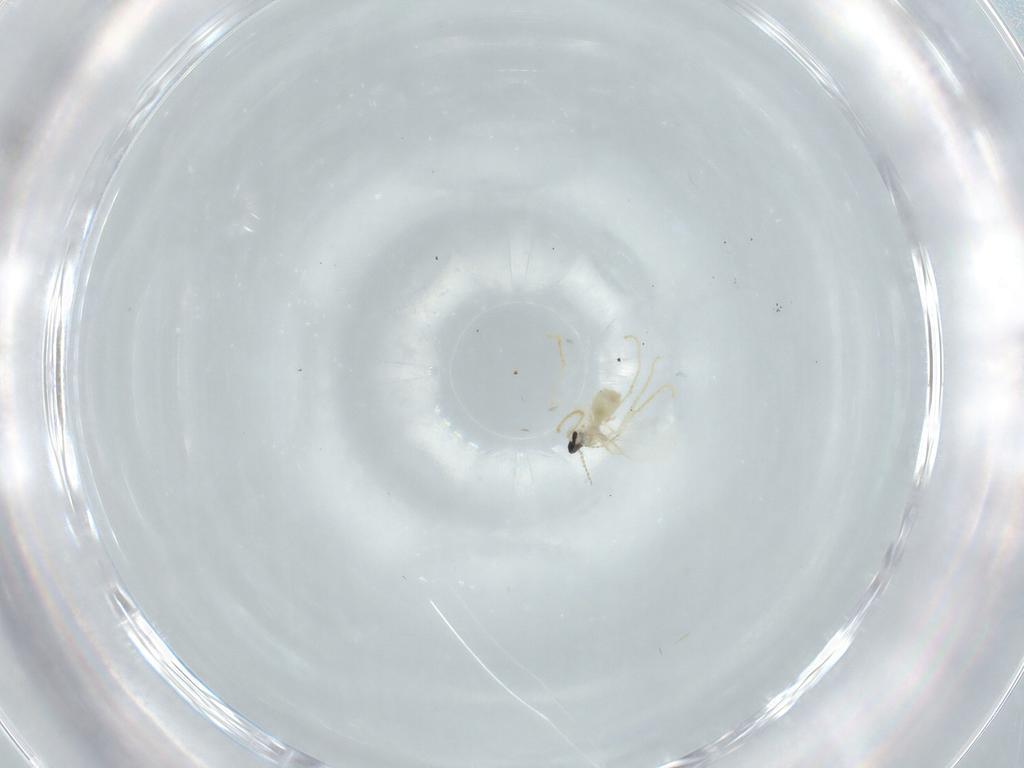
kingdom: Animalia
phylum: Arthropoda
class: Insecta
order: Diptera
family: Cecidomyiidae
